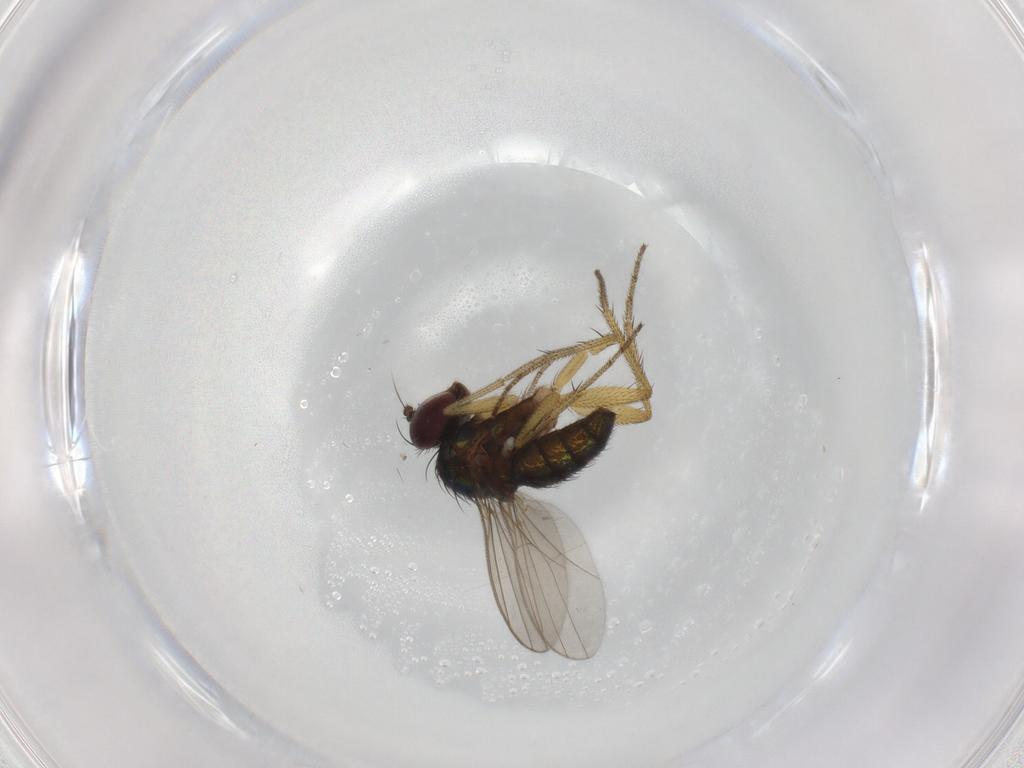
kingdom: Animalia
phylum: Arthropoda
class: Insecta
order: Diptera
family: Dolichopodidae
